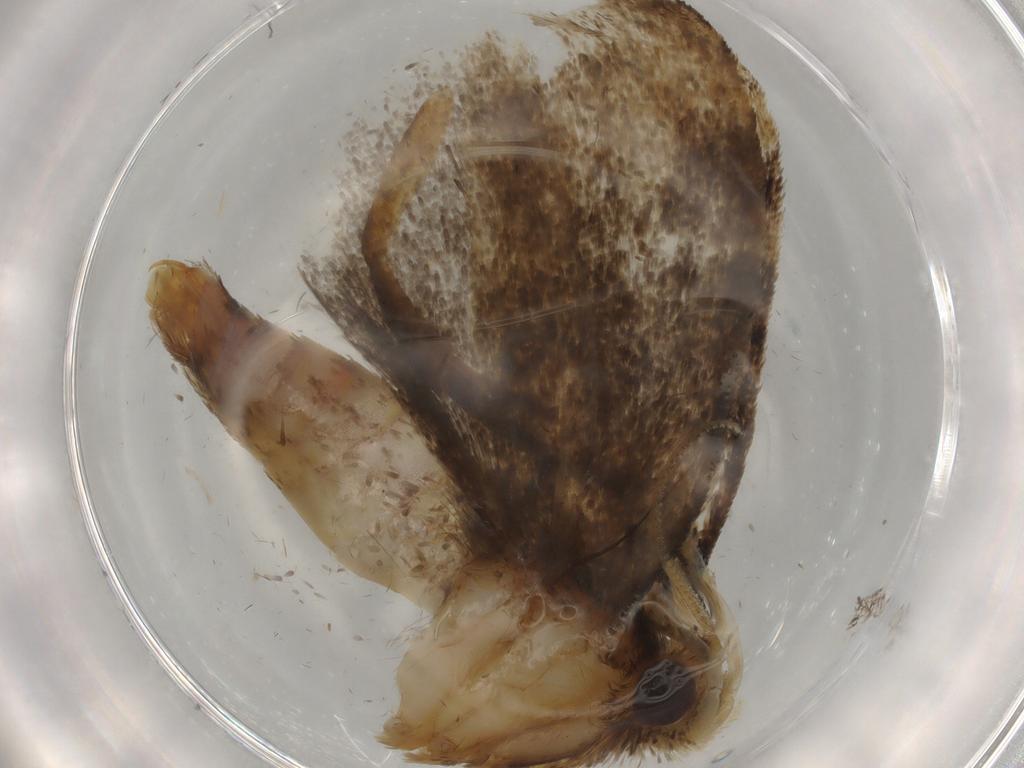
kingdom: Animalia
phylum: Arthropoda
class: Insecta
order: Lepidoptera
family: Tineidae
